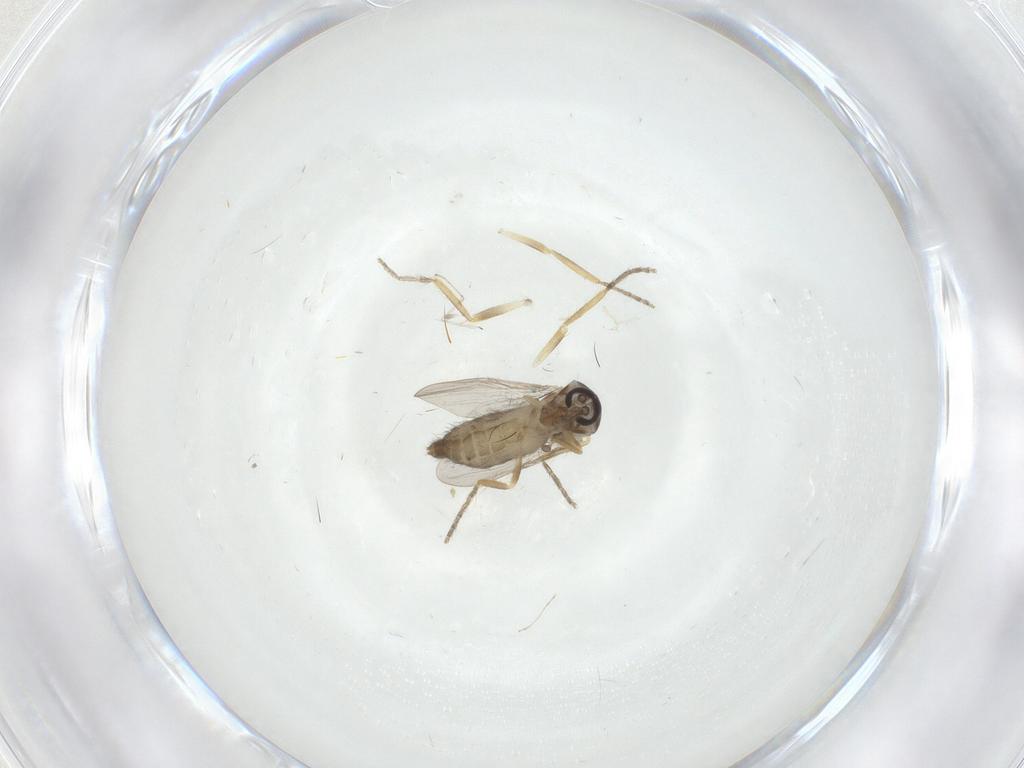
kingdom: Animalia
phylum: Arthropoda
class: Insecta
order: Diptera
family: Ceratopogonidae
